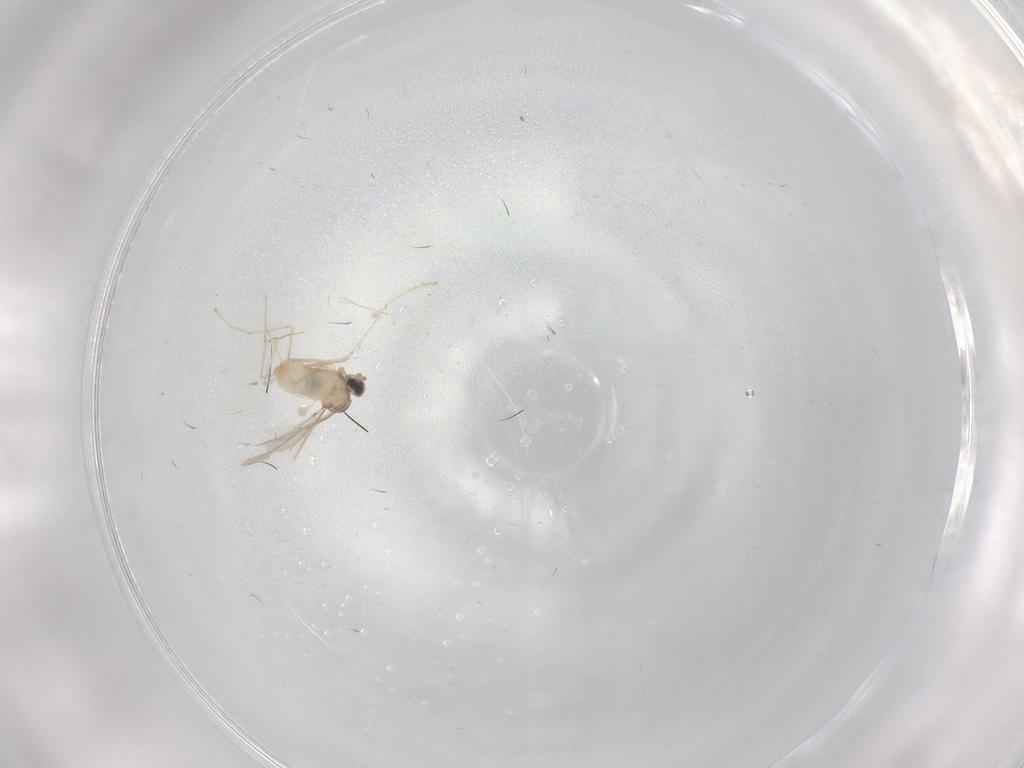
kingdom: Animalia
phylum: Arthropoda
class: Insecta
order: Diptera
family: Cecidomyiidae
